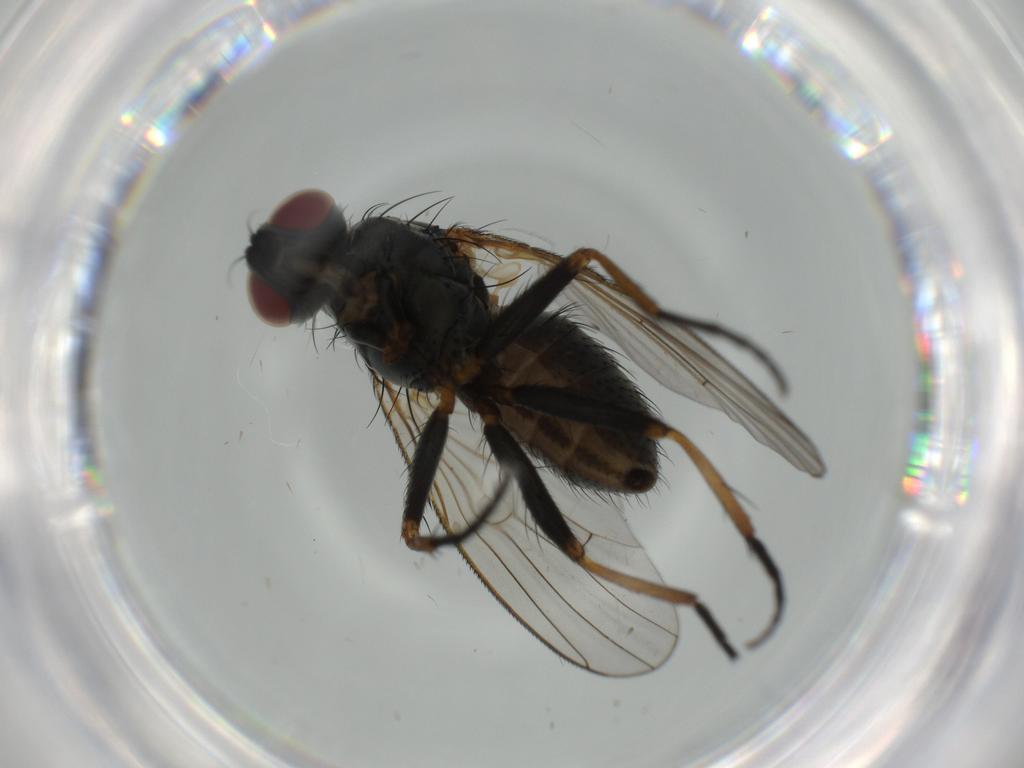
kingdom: Animalia
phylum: Arthropoda
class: Insecta
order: Diptera
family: Muscidae
